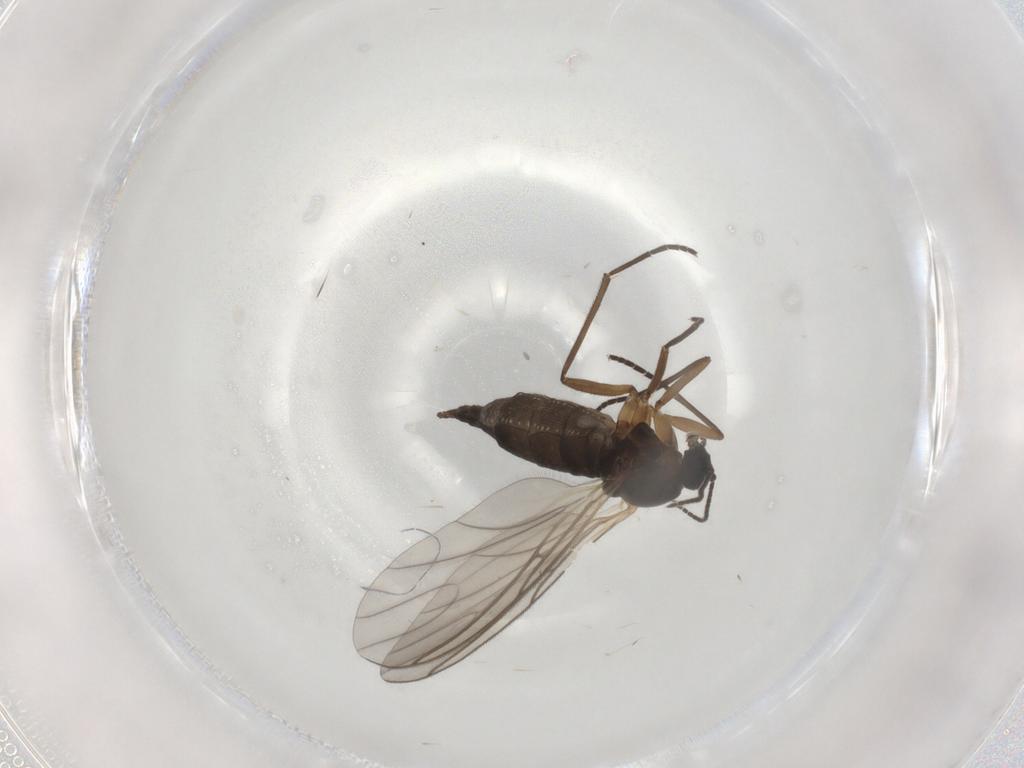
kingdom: Animalia
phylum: Arthropoda
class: Insecta
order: Diptera
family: Sciaridae
